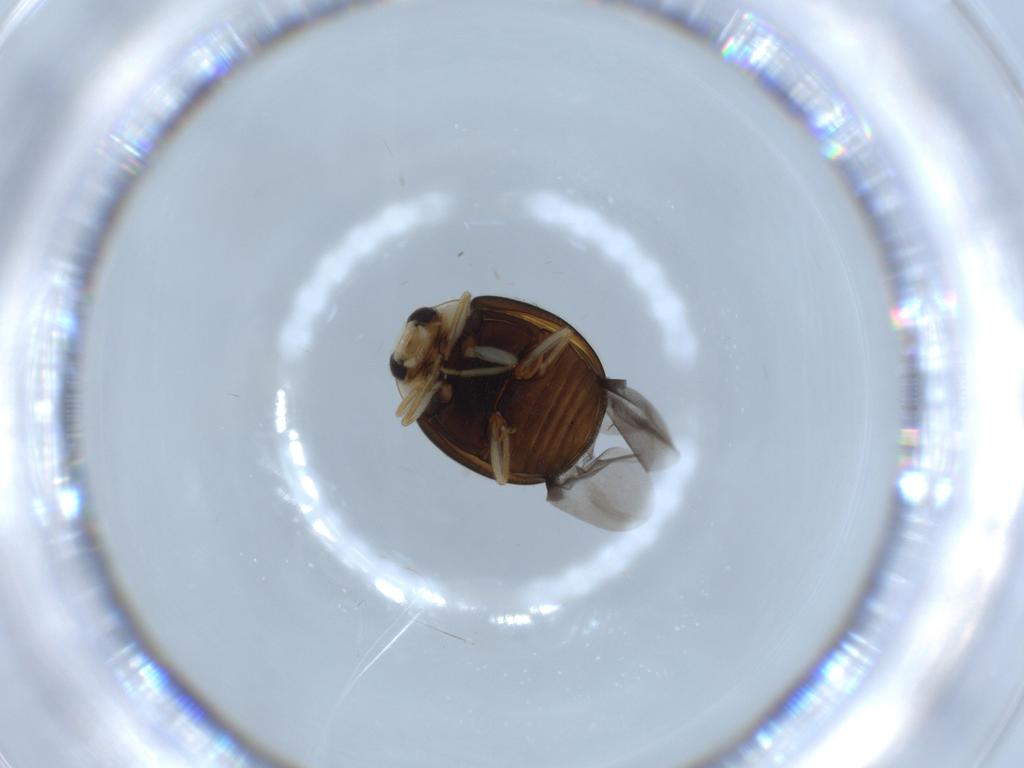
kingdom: Animalia
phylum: Arthropoda
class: Insecta
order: Coleoptera
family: Coccinellidae
